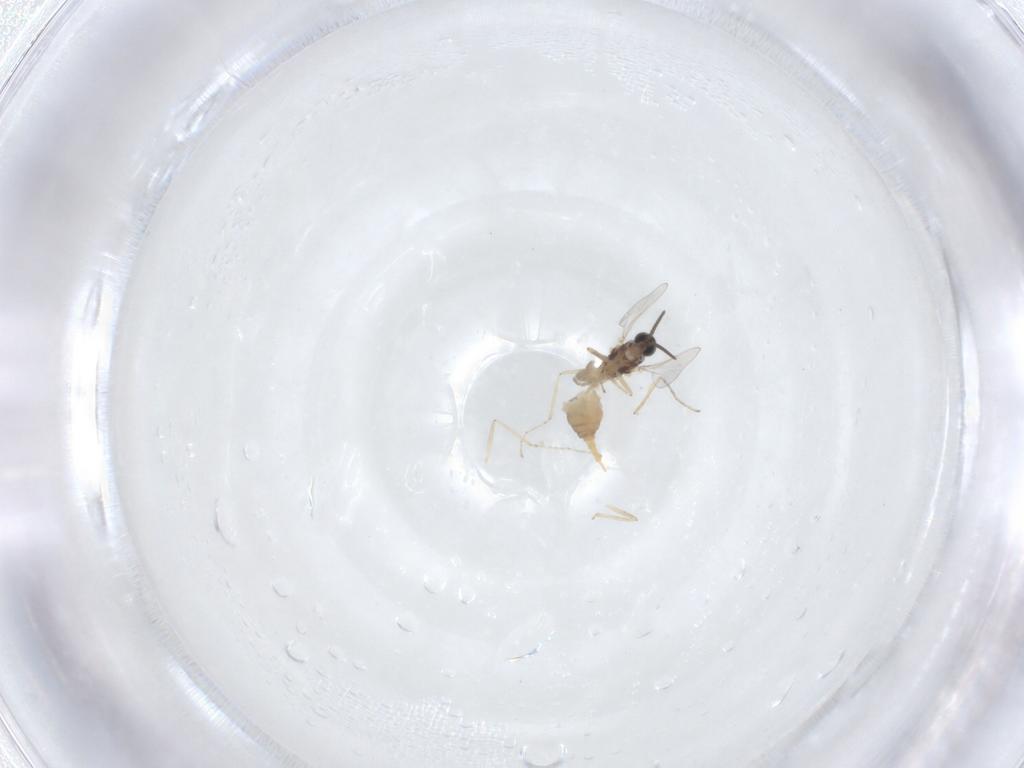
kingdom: Animalia
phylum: Arthropoda
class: Insecta
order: Diptera
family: Cecidomyiidae
